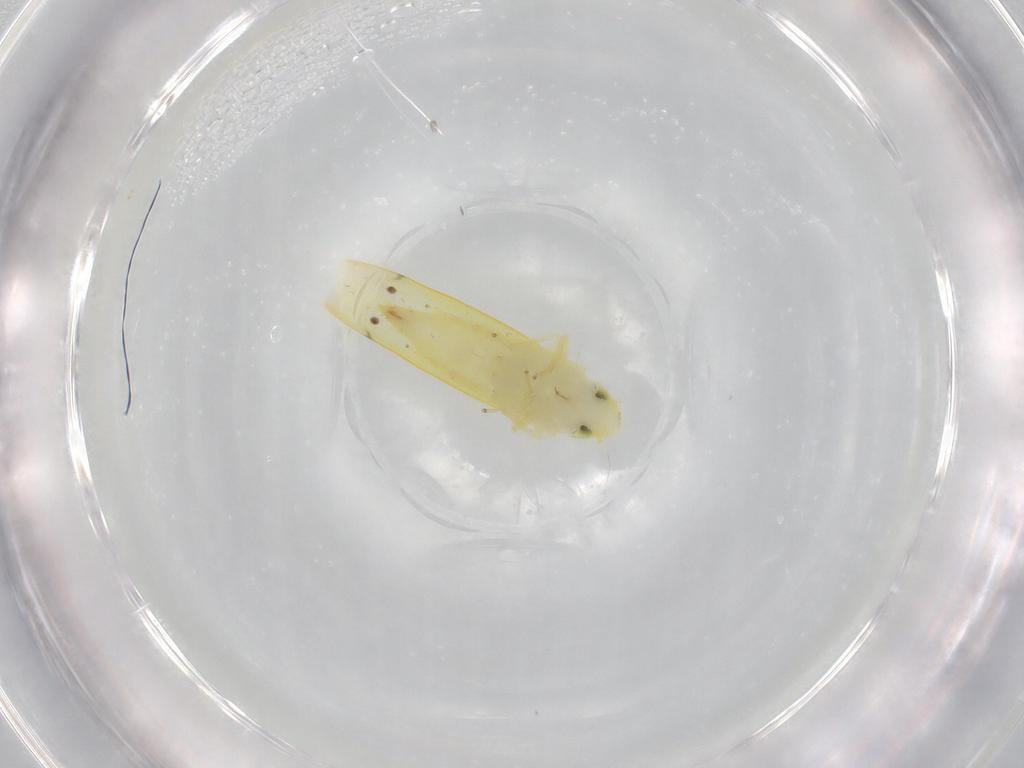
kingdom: Animalia
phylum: Arthropoda
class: Insecta
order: Hemiptera
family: Cicadellidae
